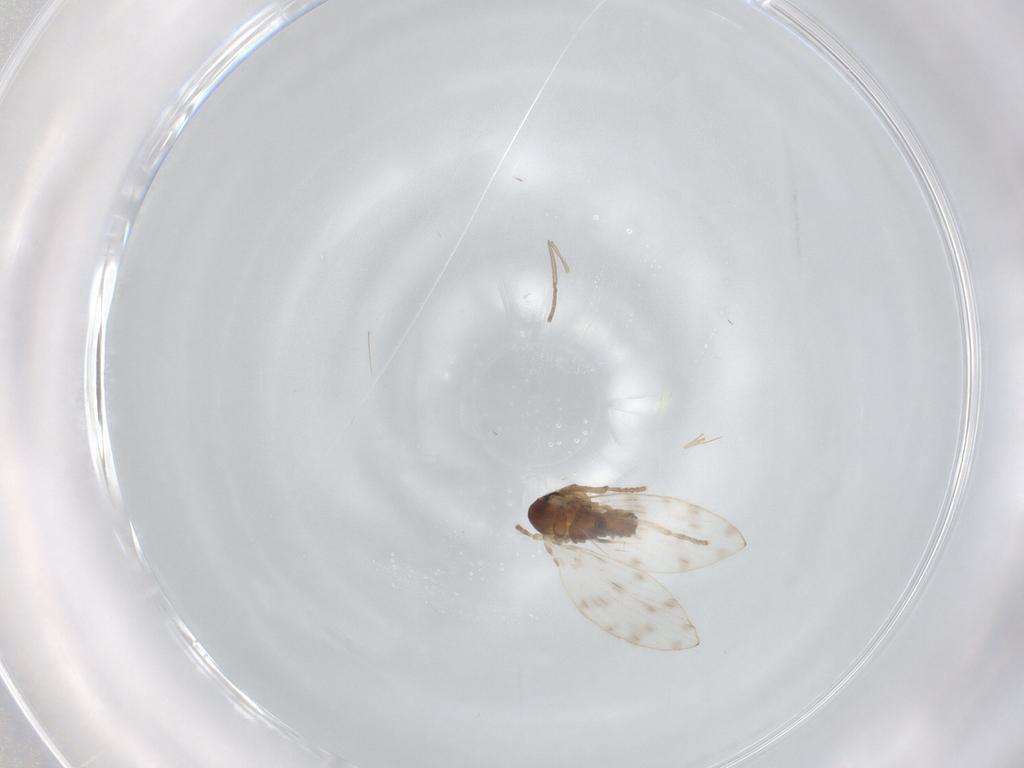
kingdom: Animalia
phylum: Arthropoda
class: Insecta
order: Diptera
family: Psychodidae
